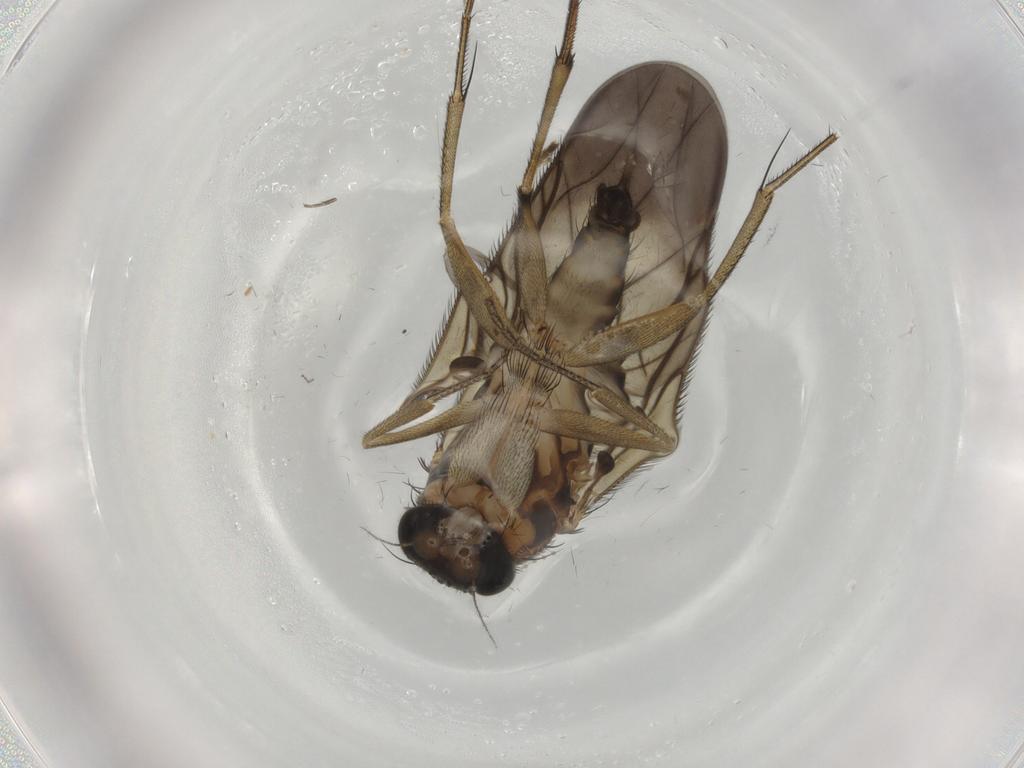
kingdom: Animalia
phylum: Arthropoda
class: Insecta
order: Diptera
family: Phoridae
